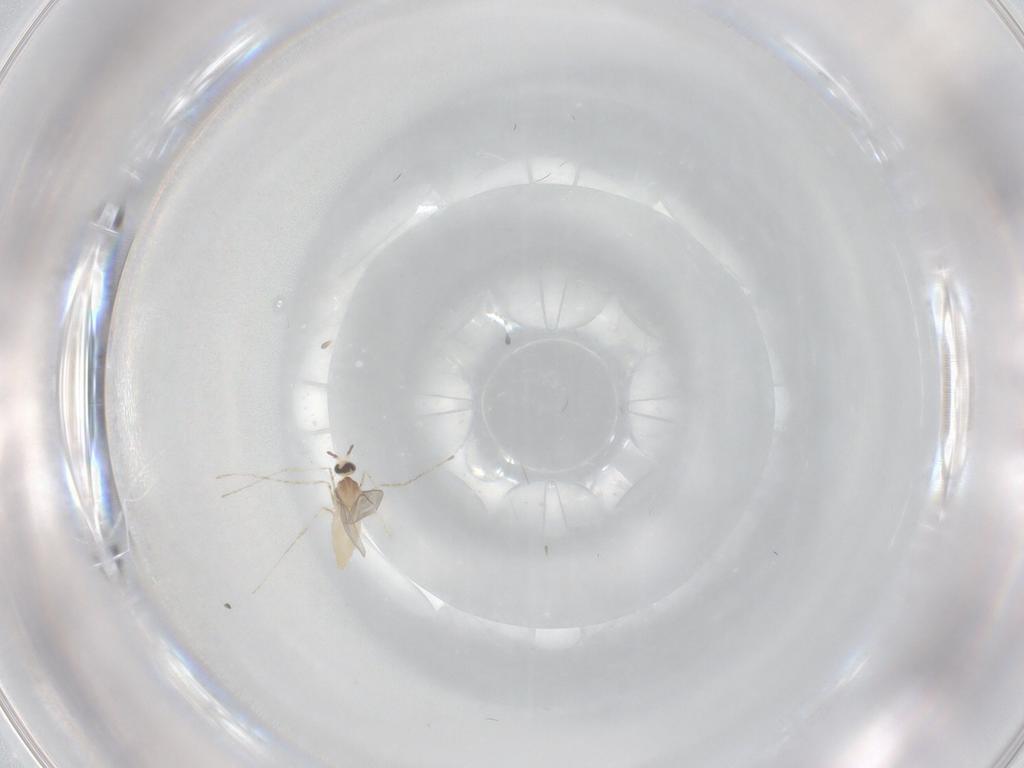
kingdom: Animalia
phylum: Arthropoda
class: Insecta
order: Diptera
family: Cecidomyiidae
